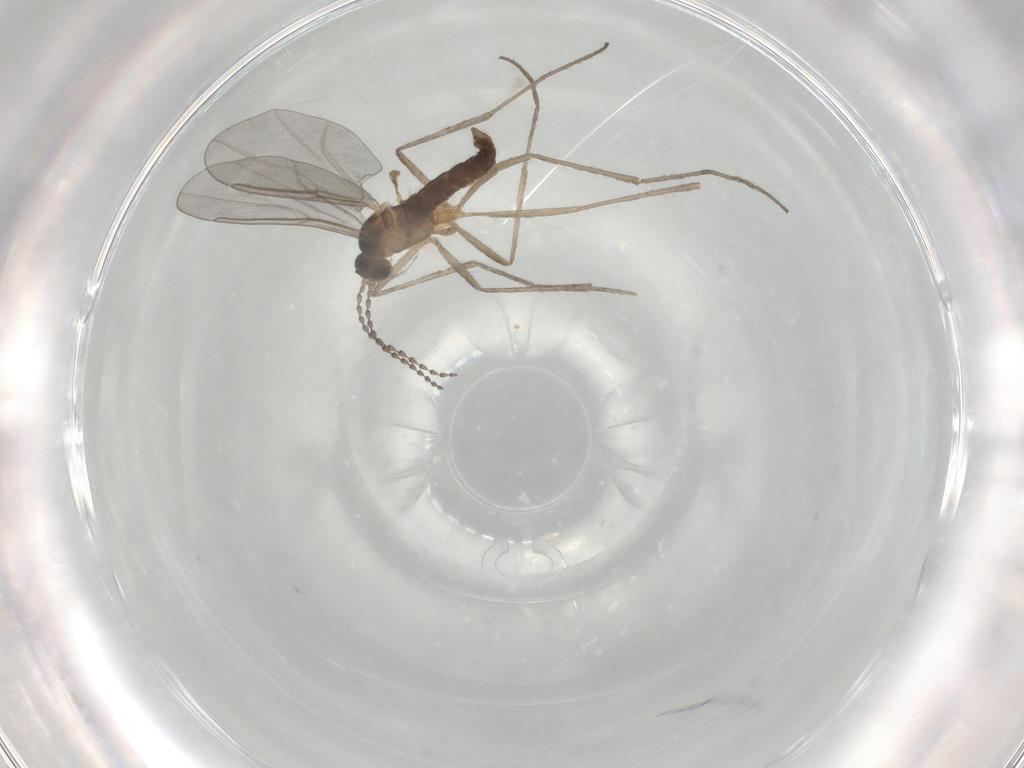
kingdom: Animalia
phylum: Arthropoda
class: Insecta
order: Diptera
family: Cecidomyiidae
